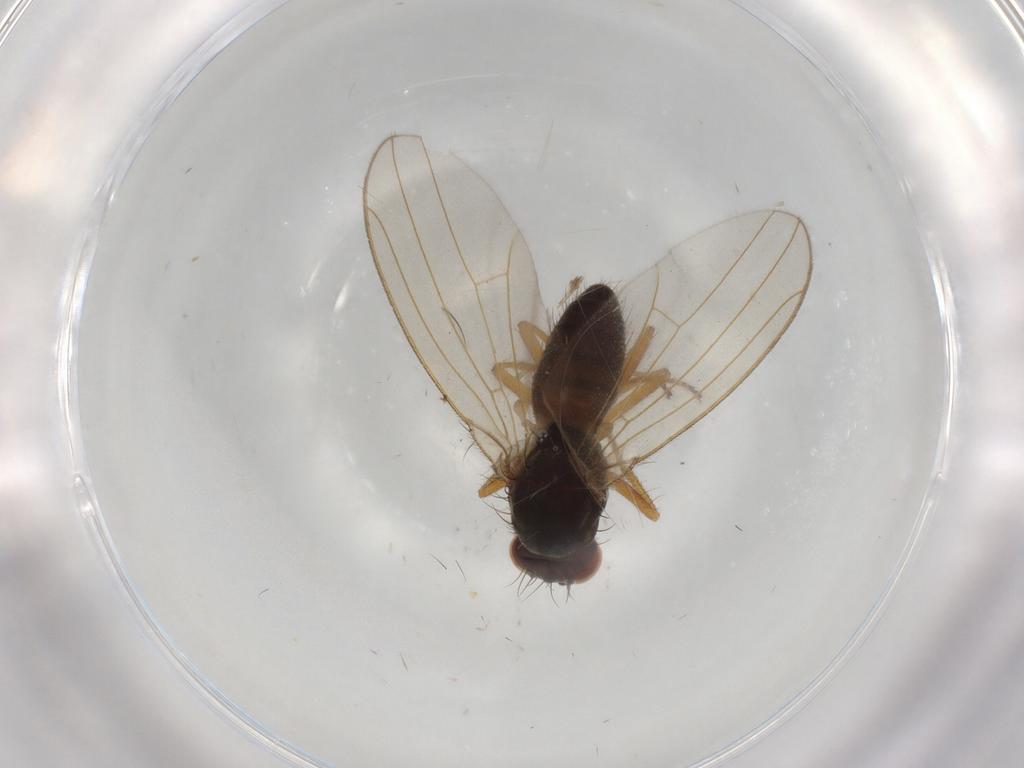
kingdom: Animalia
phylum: Arthropoda
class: Insecta
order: Diptera
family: Drosophilidae
